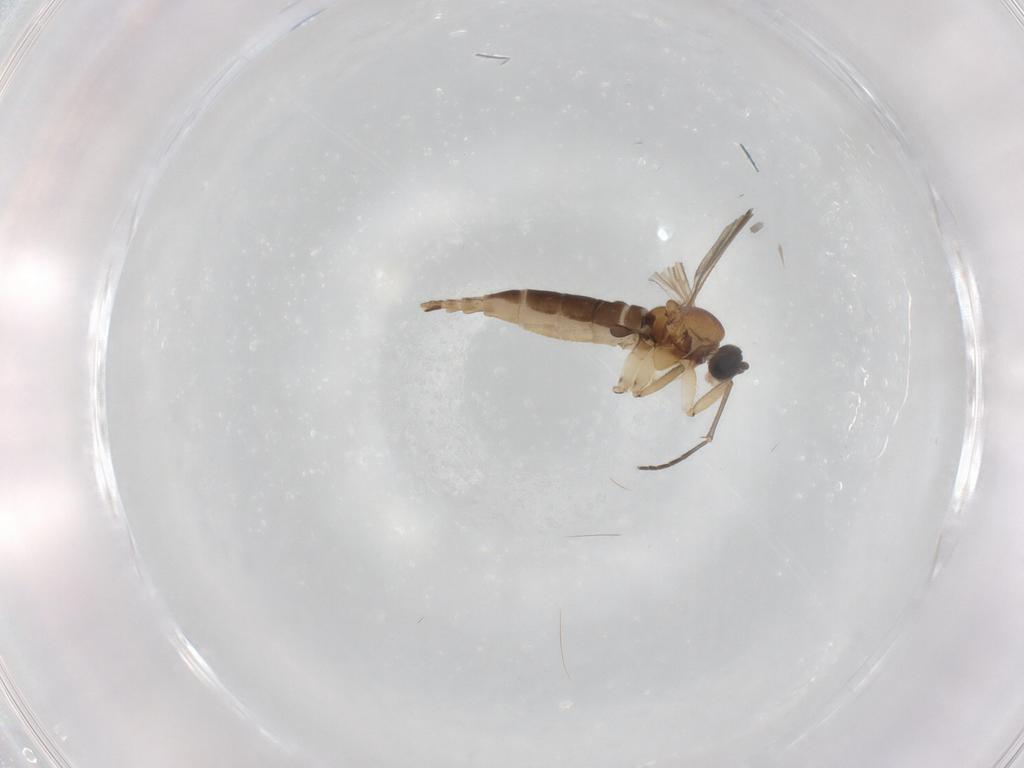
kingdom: Animalia
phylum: Arthropoda
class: Insecta
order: Diptera
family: Sciaridae
